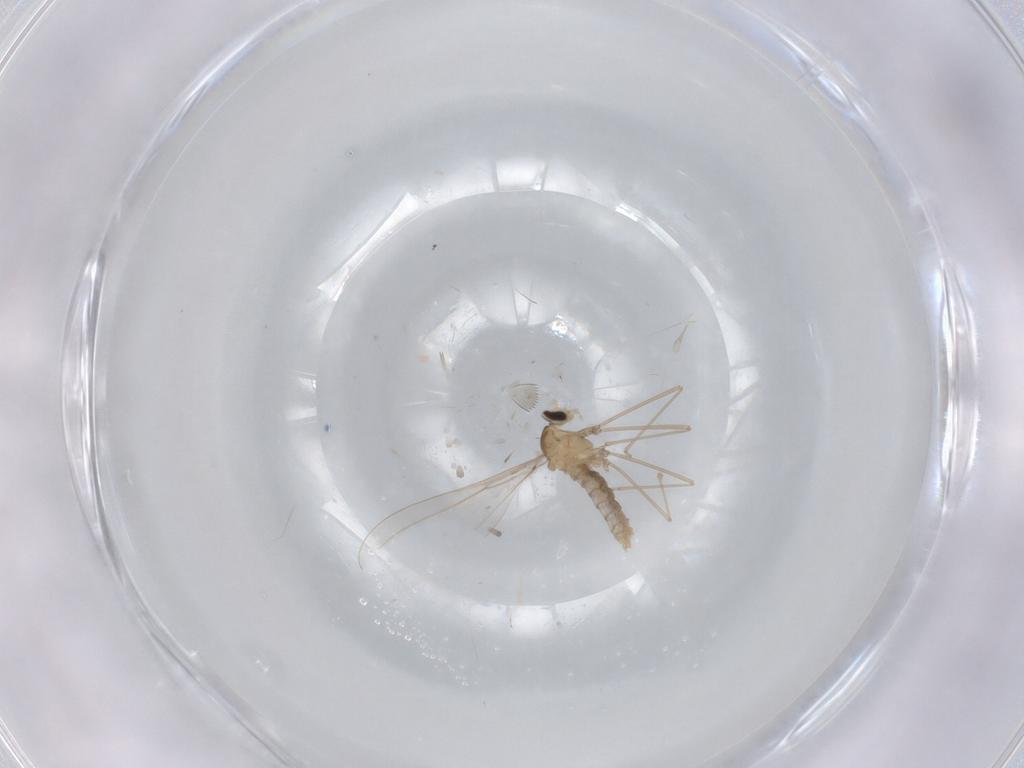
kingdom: Animalia
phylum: Arthropoda
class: Insecta
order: Diptera
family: Cecidomyiidae
